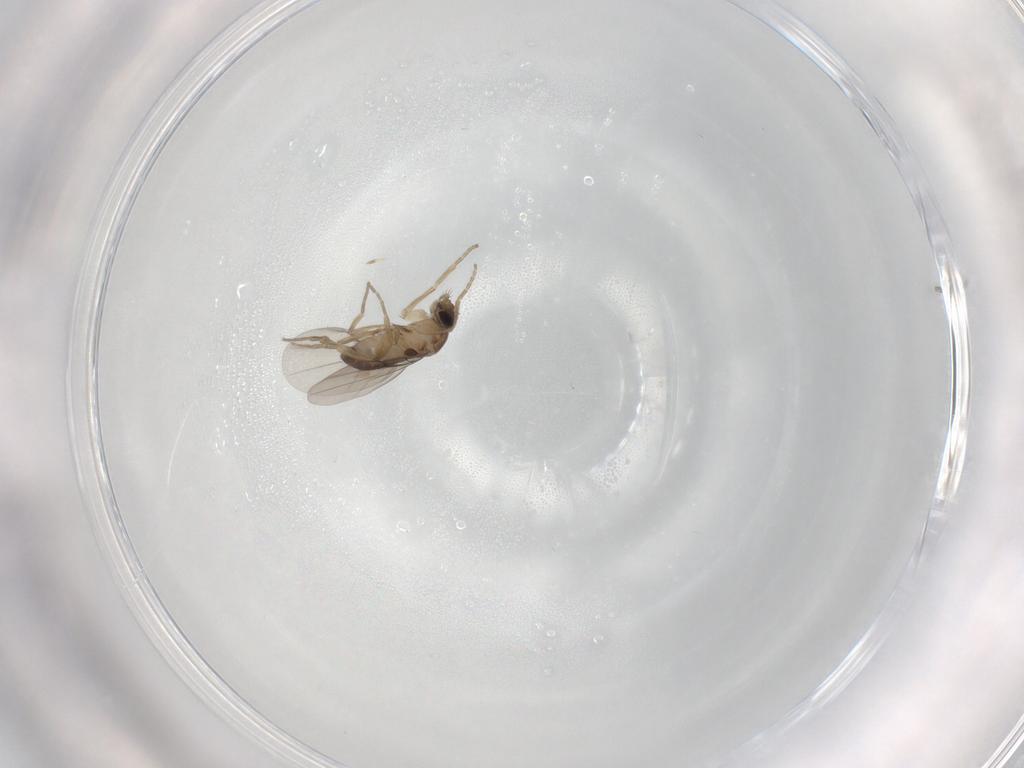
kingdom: Animalia
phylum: Arthropoda
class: Insecta
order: Diptera
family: Phoridae
